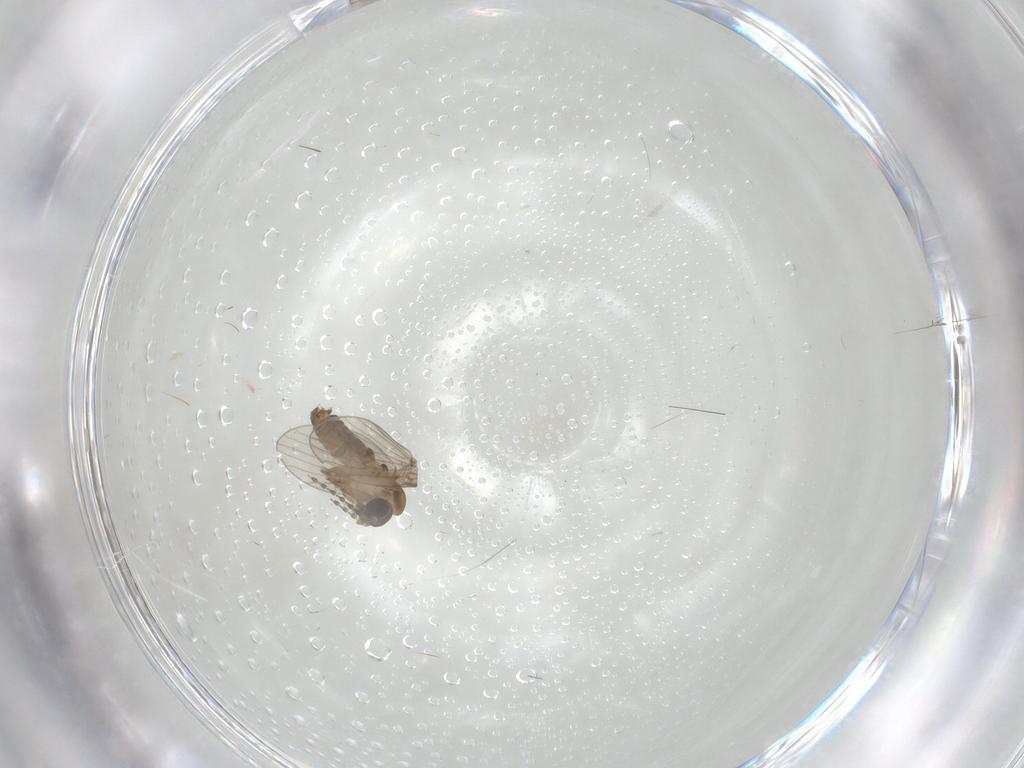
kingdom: Animalia
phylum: Arthropoda
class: Insecta
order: Diptera
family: Psychodidae
